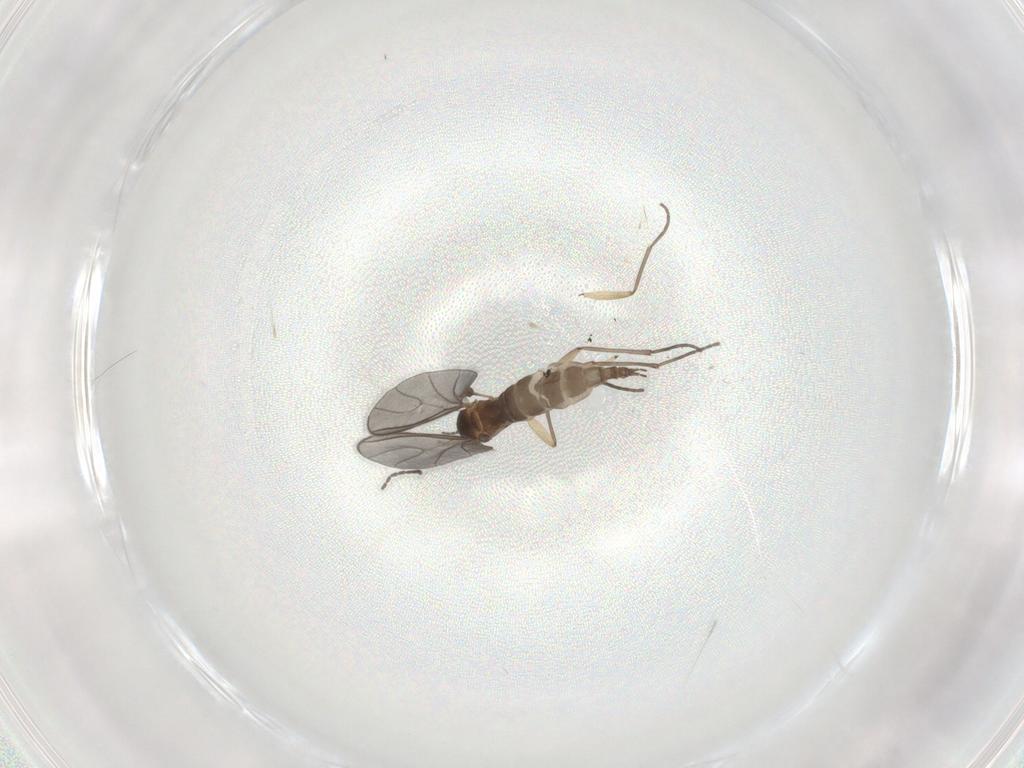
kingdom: Animalia
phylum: Arthropoda
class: Insecta
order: Diptera
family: Sciaridae
